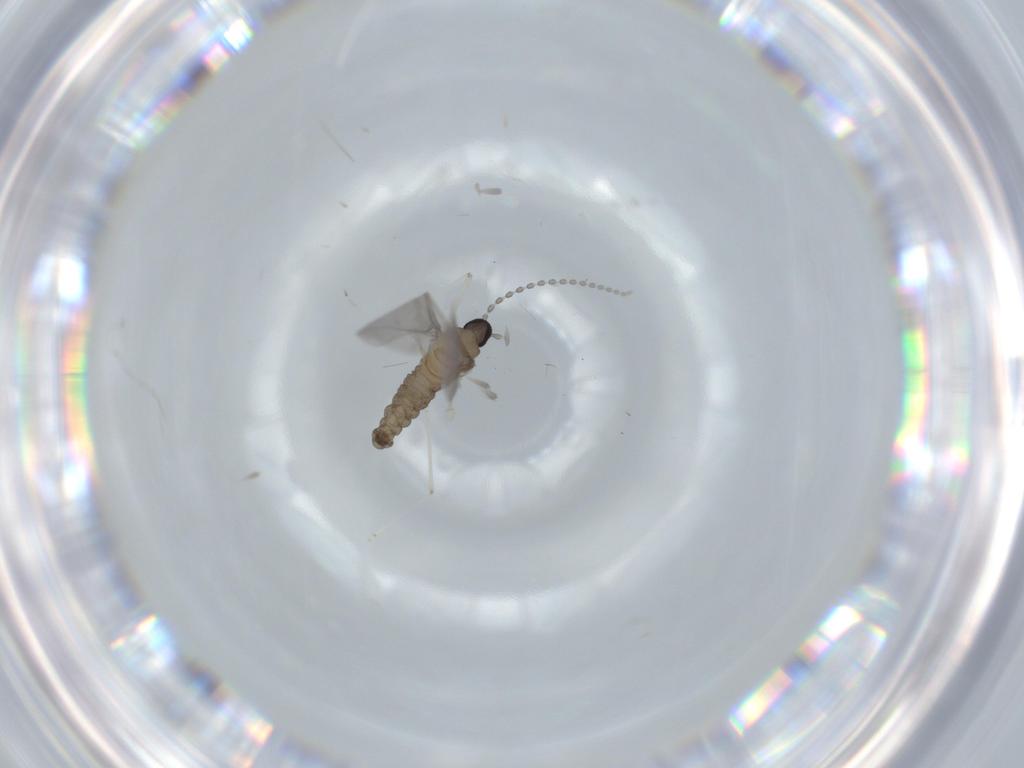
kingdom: Animalia
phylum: Arthropoda
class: Insecta
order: Diptera
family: Cecidomyiidae
